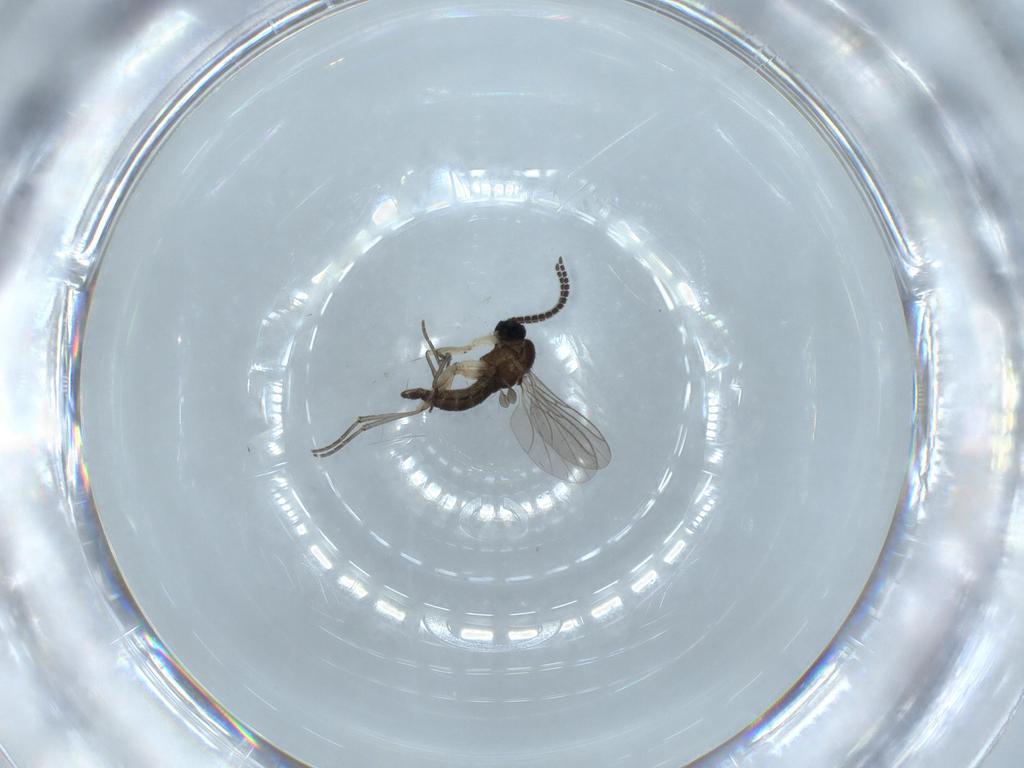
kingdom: Animalia
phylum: Arthropoda
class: Insecta
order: Diptera
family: Sciaridae
